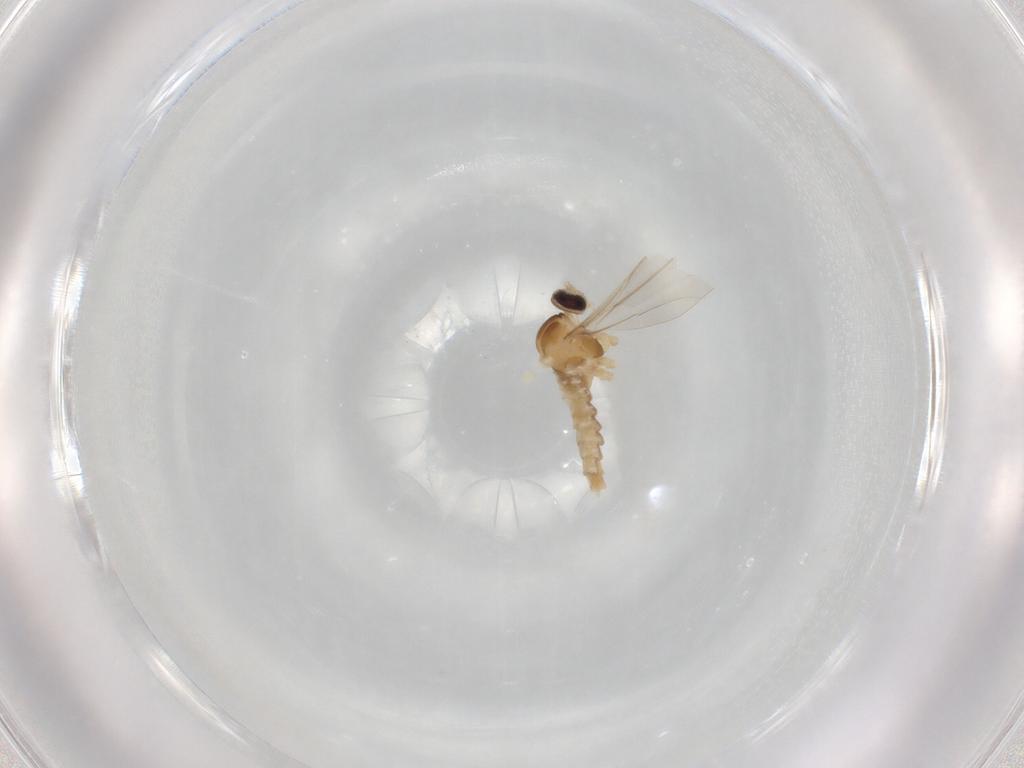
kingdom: Animalia
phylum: Arthropoda
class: Insecta
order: Diptera
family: Cecidomyiidae
